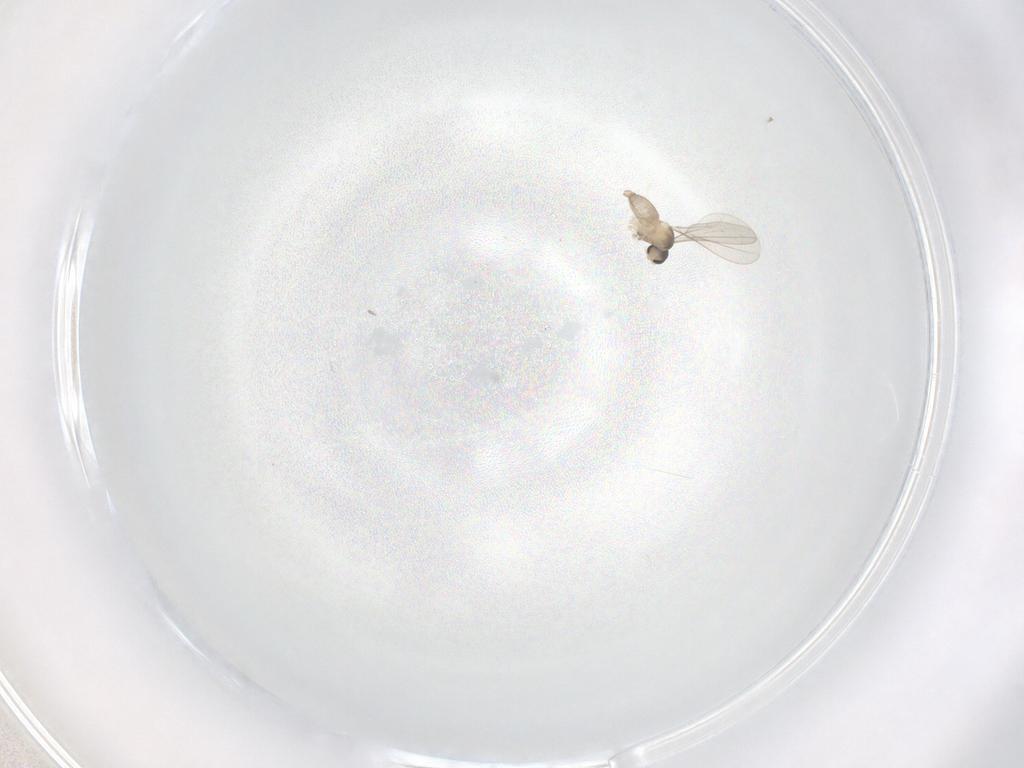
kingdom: Animalia
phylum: Arthropoda
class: Insecta
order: Diptera
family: Cecidomyiidae
